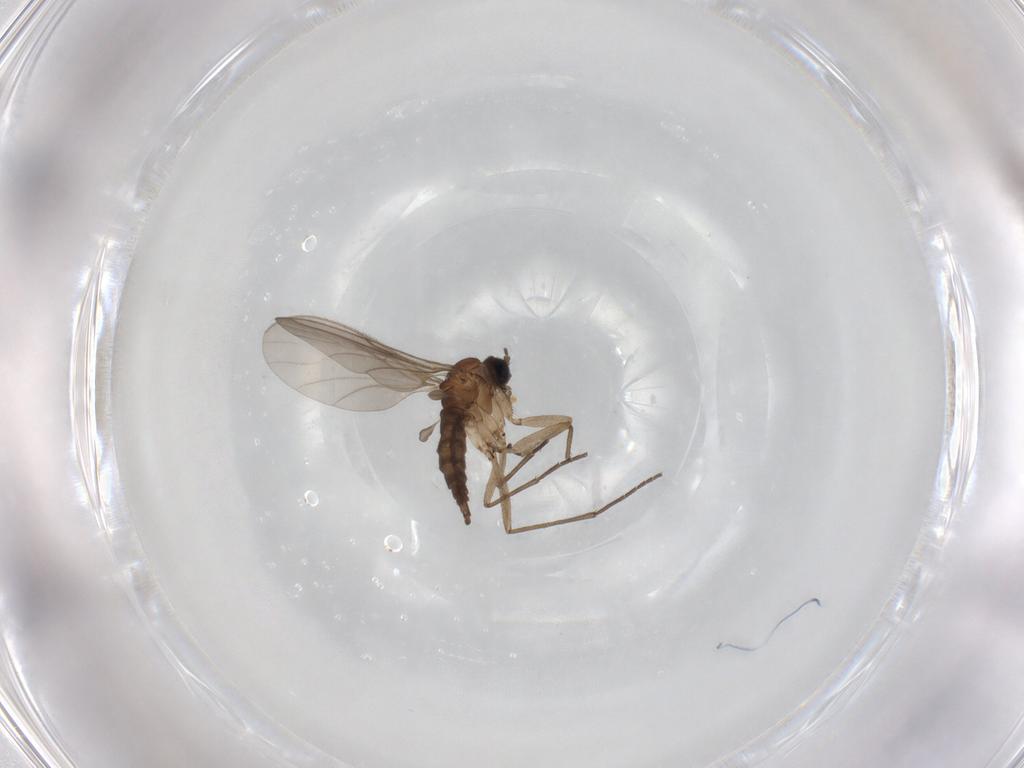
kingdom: Animalia
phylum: Arthropoda
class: Insecta
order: Diptera
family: Sciaridae
